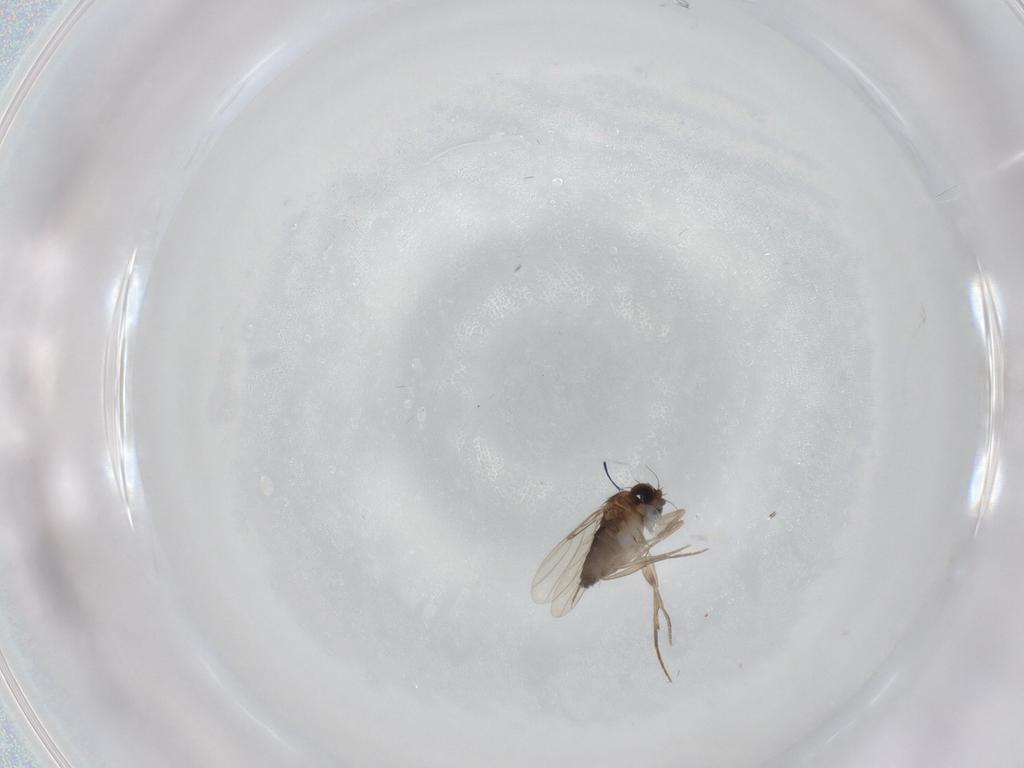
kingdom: Animalia
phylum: Arthropoda
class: Insecta
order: Diptera
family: Phoridae
